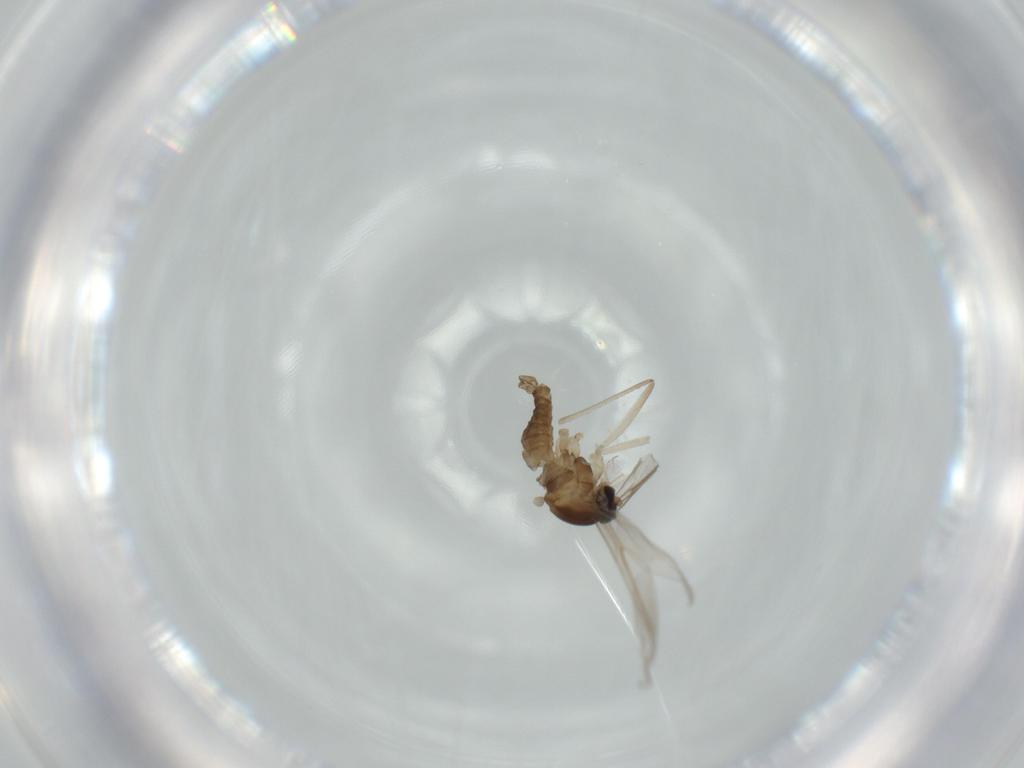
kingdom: Animalia
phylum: Arthropoda
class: Insecta
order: Diptera
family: Cecidomyiidae
